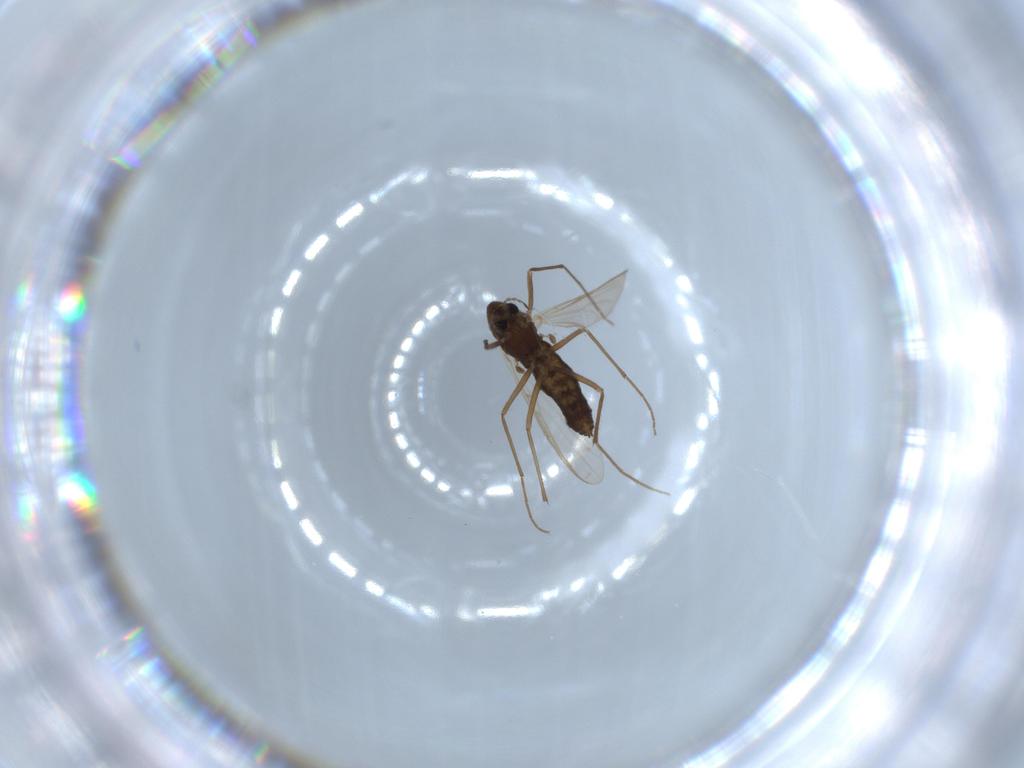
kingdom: Animalia
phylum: Arthropoda
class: Insecta
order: Diptera
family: Chironomidae
